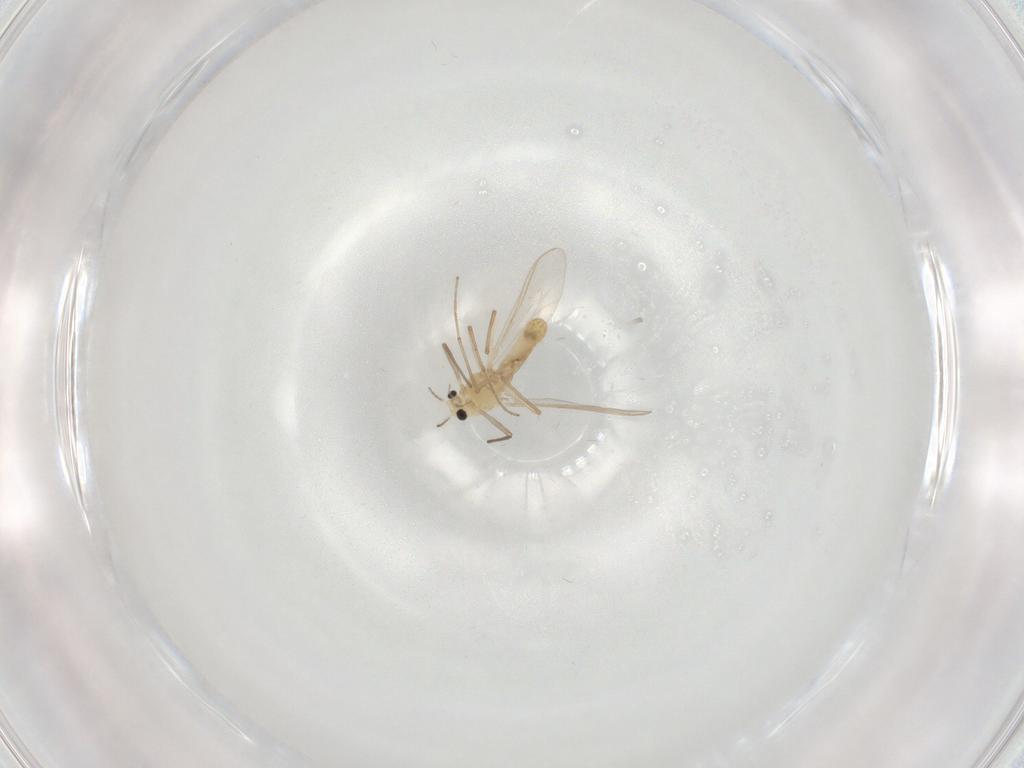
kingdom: Animalia
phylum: Arthropoda
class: Insecta
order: Diptera
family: Chironomidae
